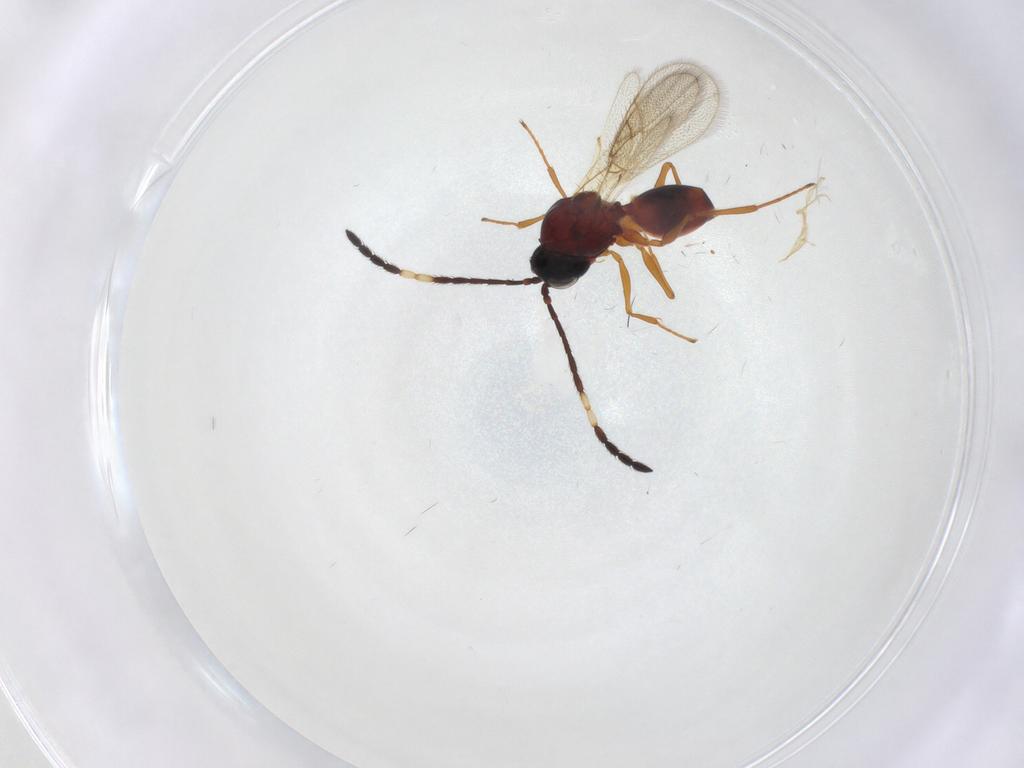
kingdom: Animalia
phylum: Arthropoda
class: Insecta
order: Hymenoptera
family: Figitidae
